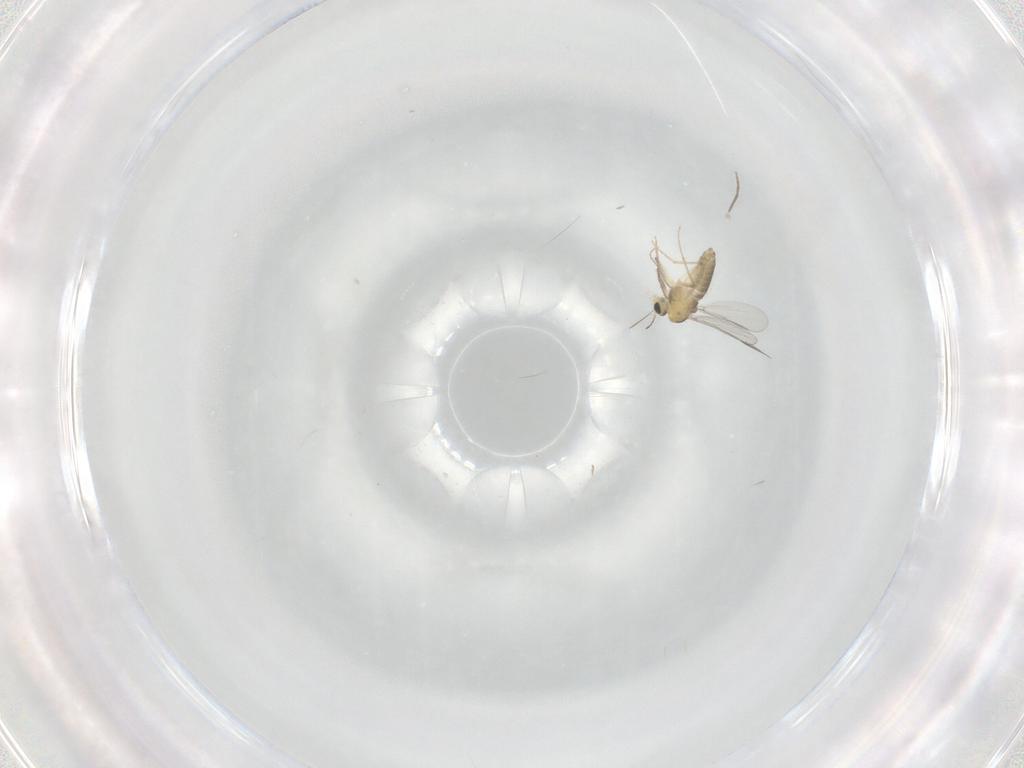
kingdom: Animalia
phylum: Arthropoda
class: Insecta
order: Diptera
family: Chironomidae
